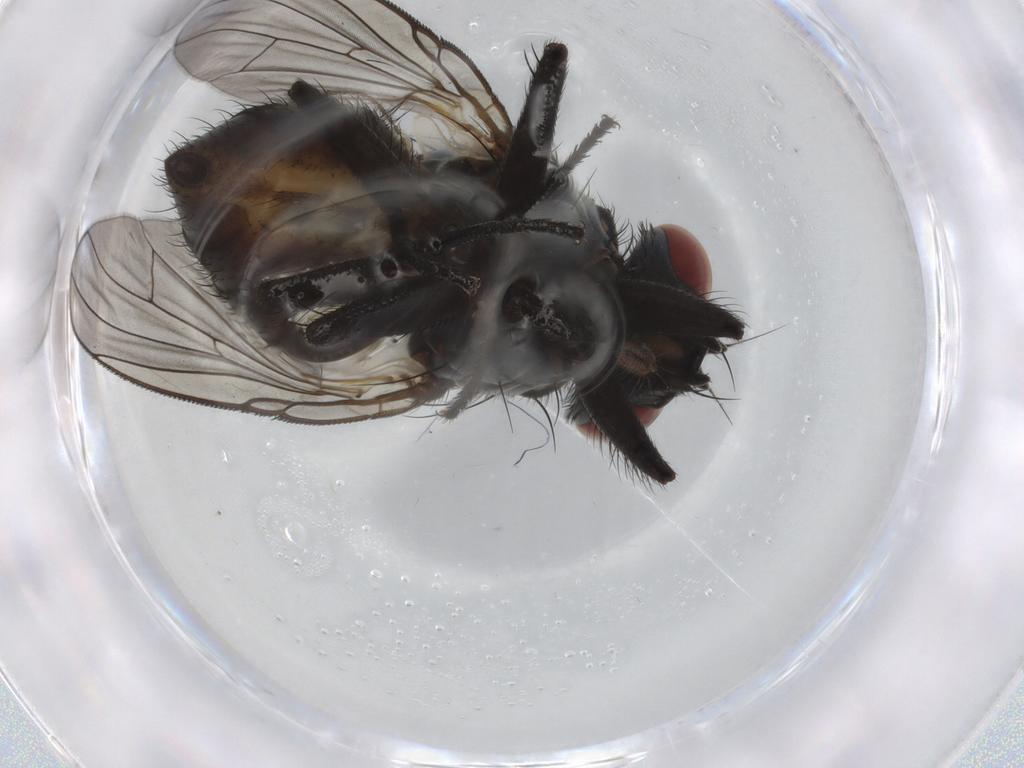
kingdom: Animalia
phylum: Arthropoda
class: Insecta
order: Diptera
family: Muscidae
